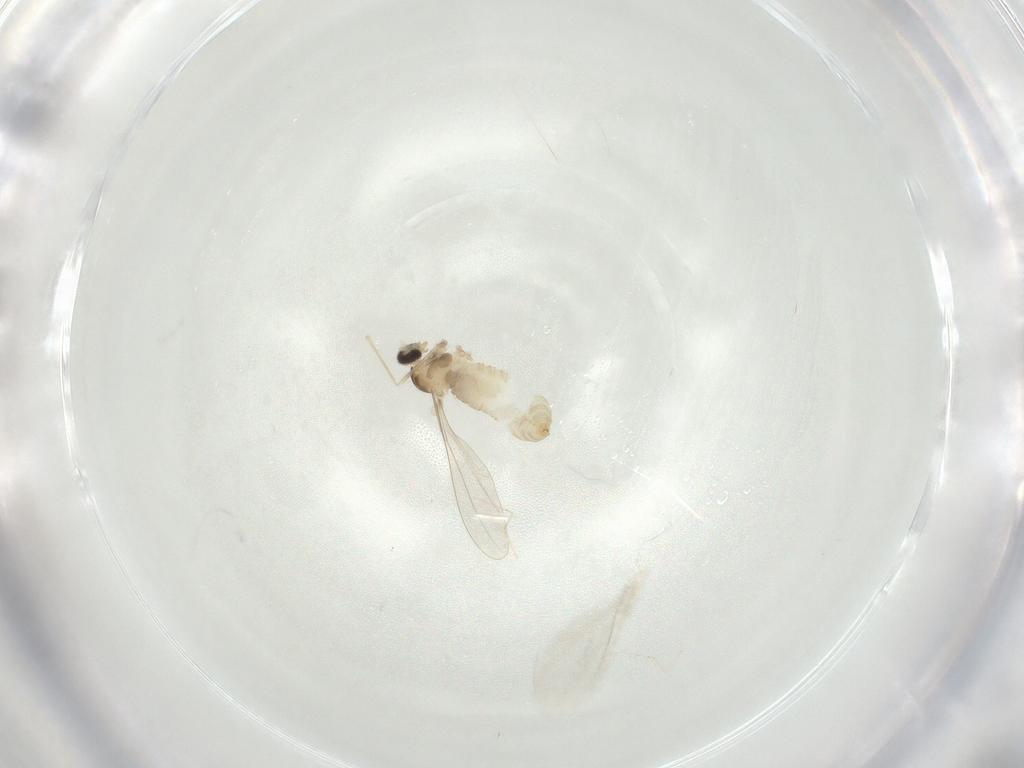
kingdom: Animalia
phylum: Arthropoda
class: Insecta
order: Diptera
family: Cecidomyiidae
